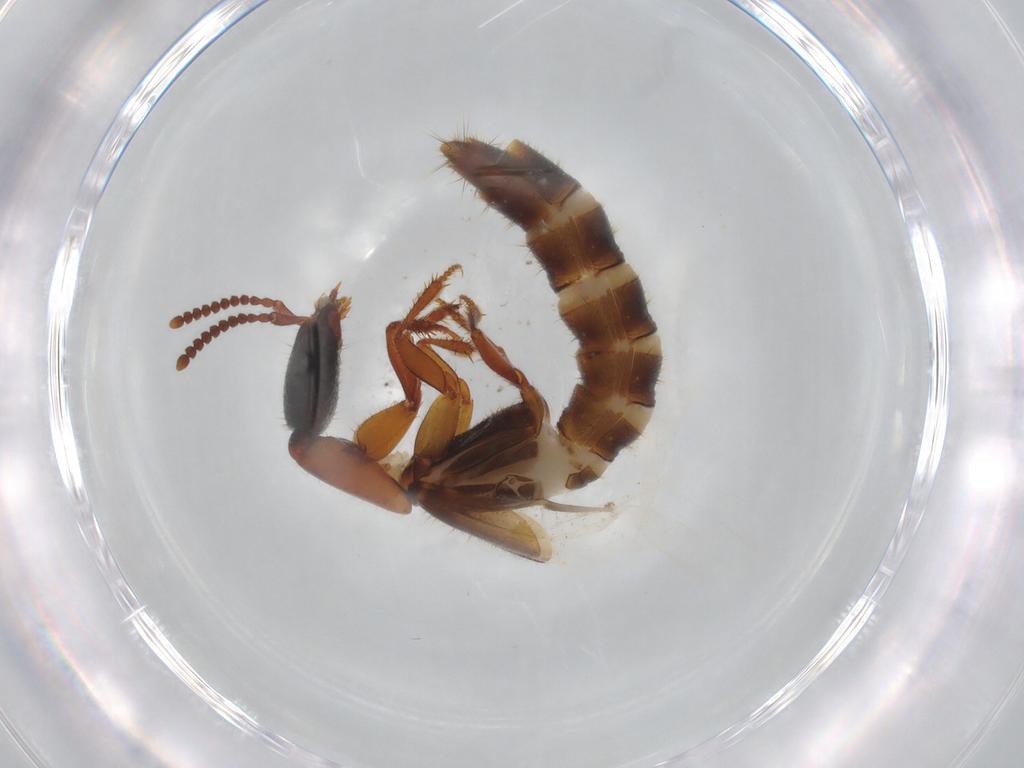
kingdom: Animalia
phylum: Arthropoda
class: Insecta
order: Coleoptera
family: Staphylinidae
